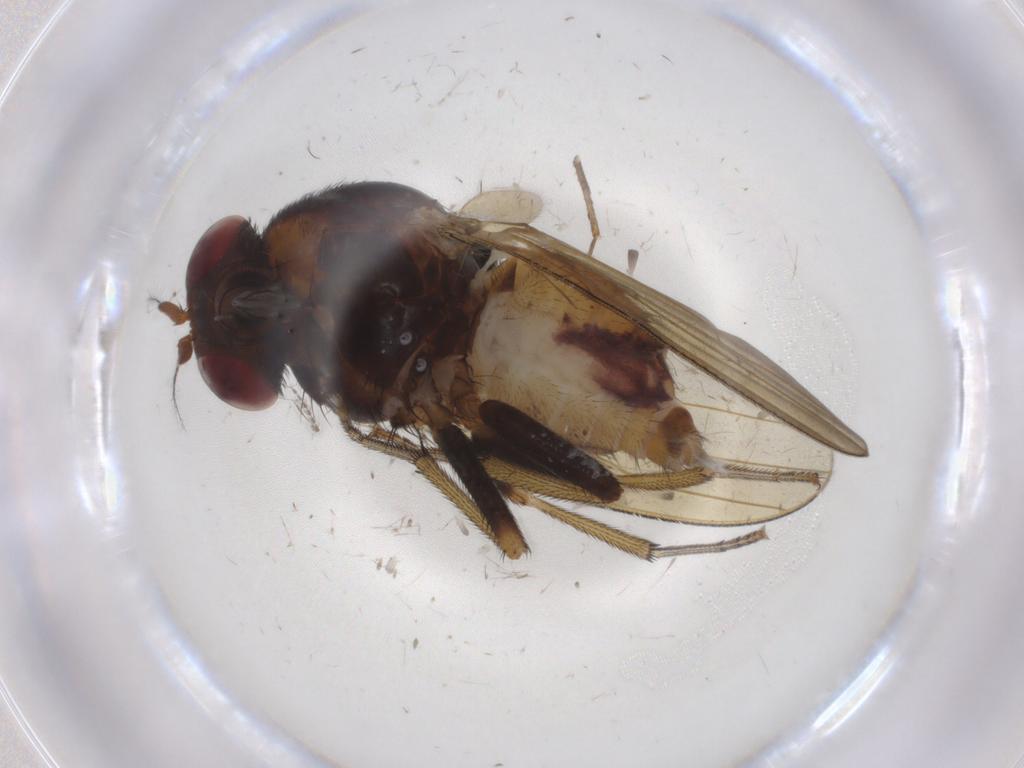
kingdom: Animalia
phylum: Arthropoda
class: Insecta
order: Diptera
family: Lauxaniidae
